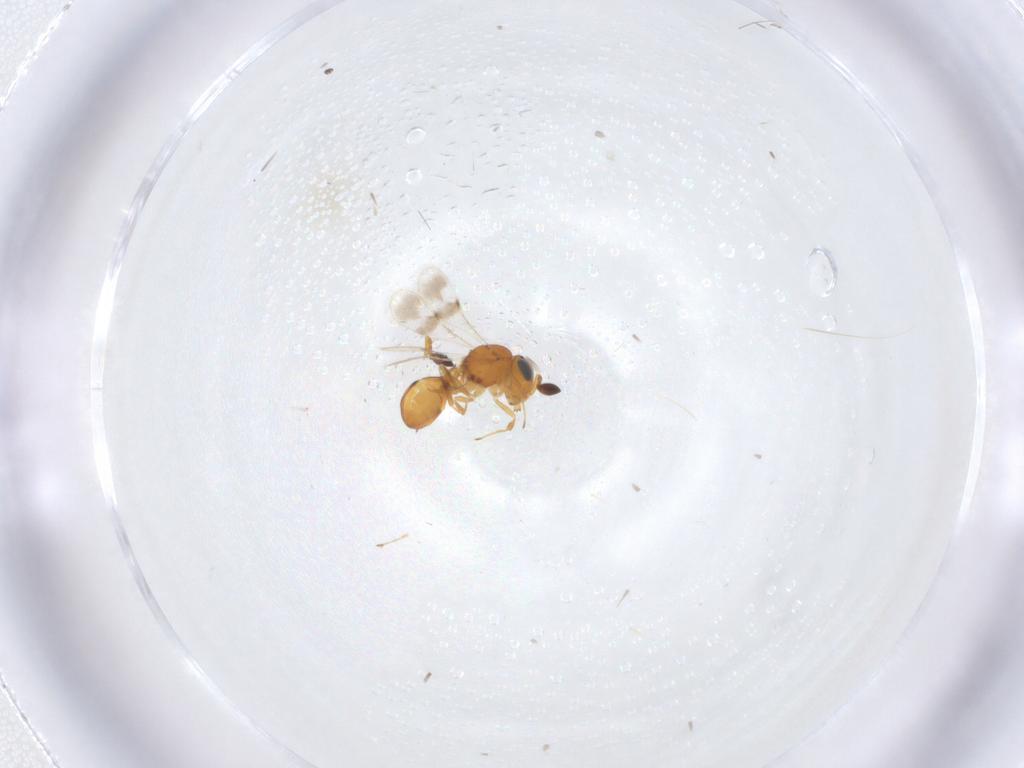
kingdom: Animalia
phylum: Arthropoda
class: Insecta
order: Hymenoptera
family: Scelionidae
